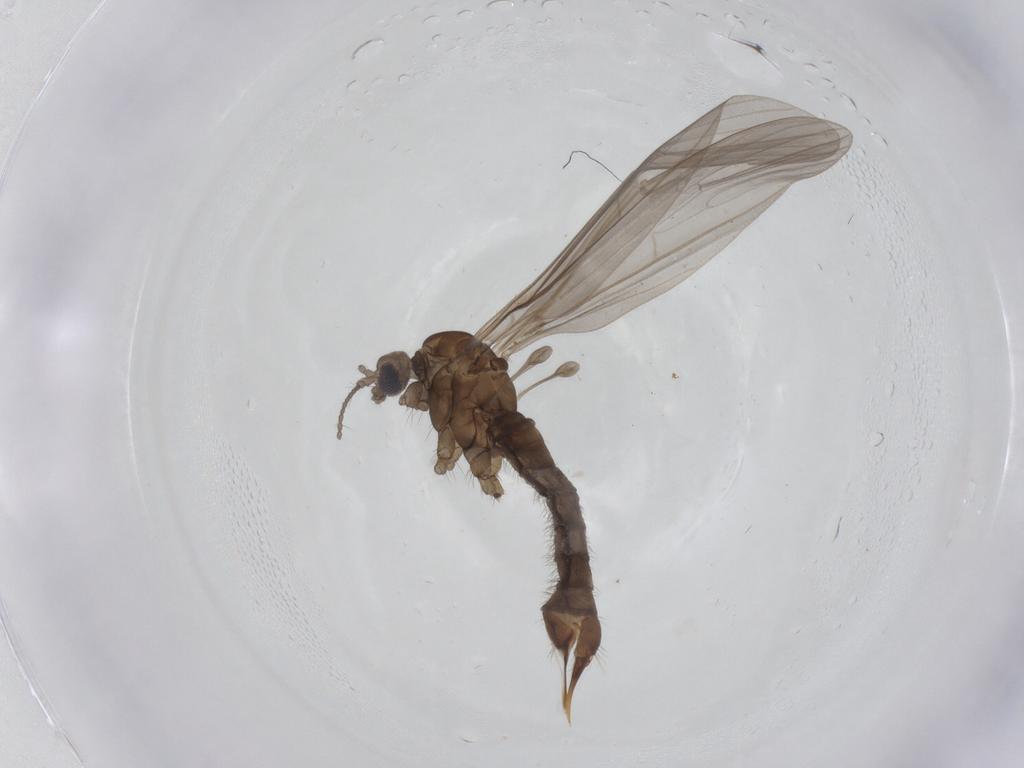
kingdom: Animalia
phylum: Arthropoda
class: Insecta
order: Diptera
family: Limoniidae
